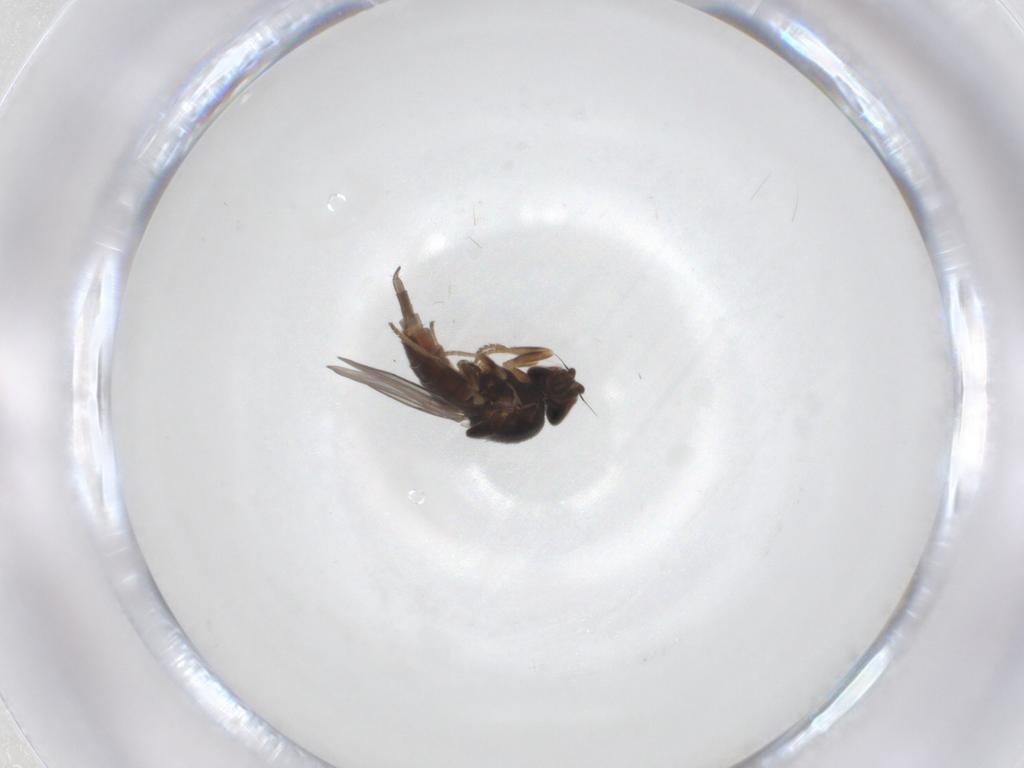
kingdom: Animalia
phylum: Arthropoda
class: Insecta
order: Diptera
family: Chloropidae
